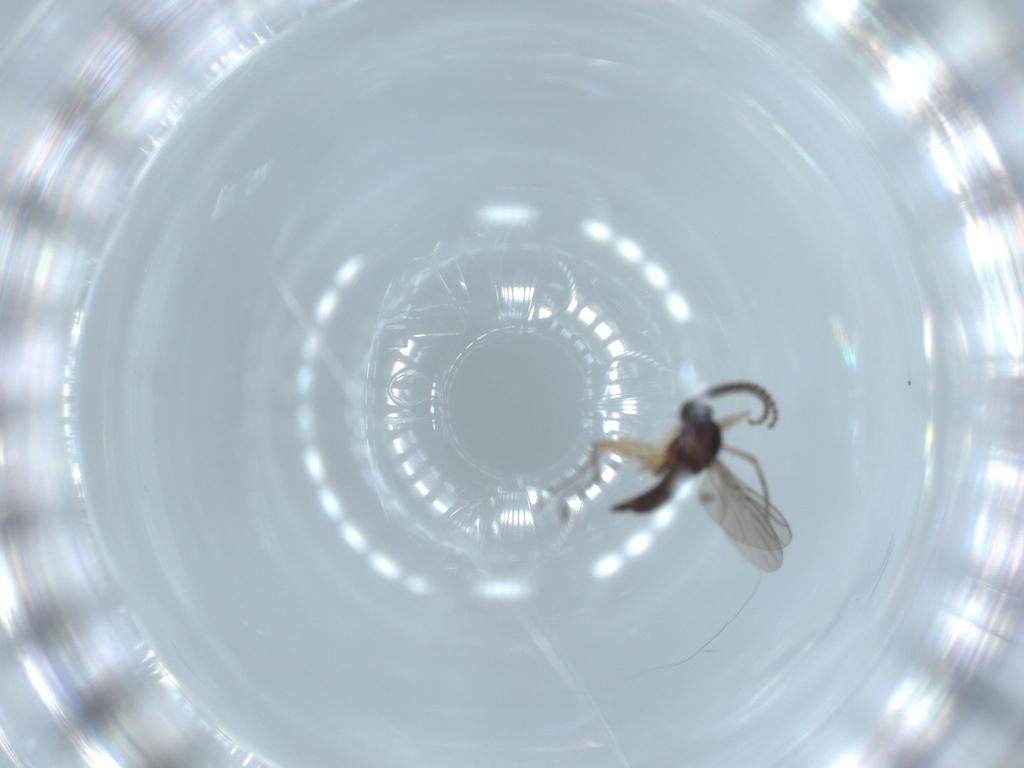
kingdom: Animalia
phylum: Arthropoda
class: Insecta
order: Diptera
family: Sciaridae
